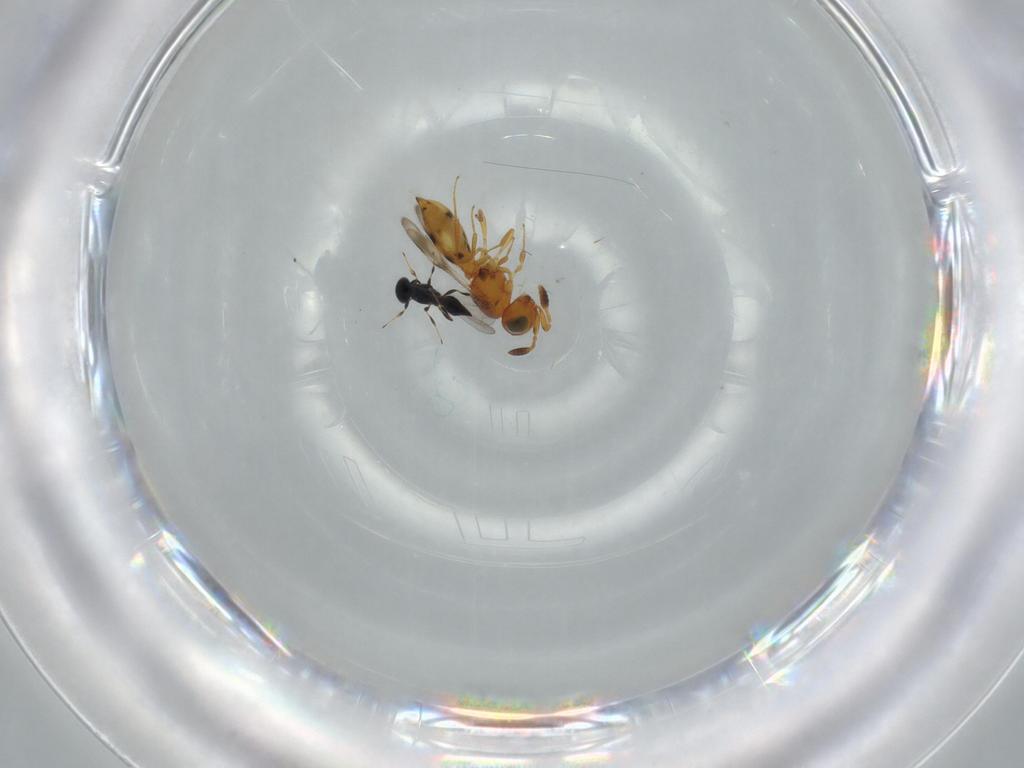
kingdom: Animalia
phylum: Arthropoda
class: Insecta
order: Hymenoptera
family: Scelionidae
